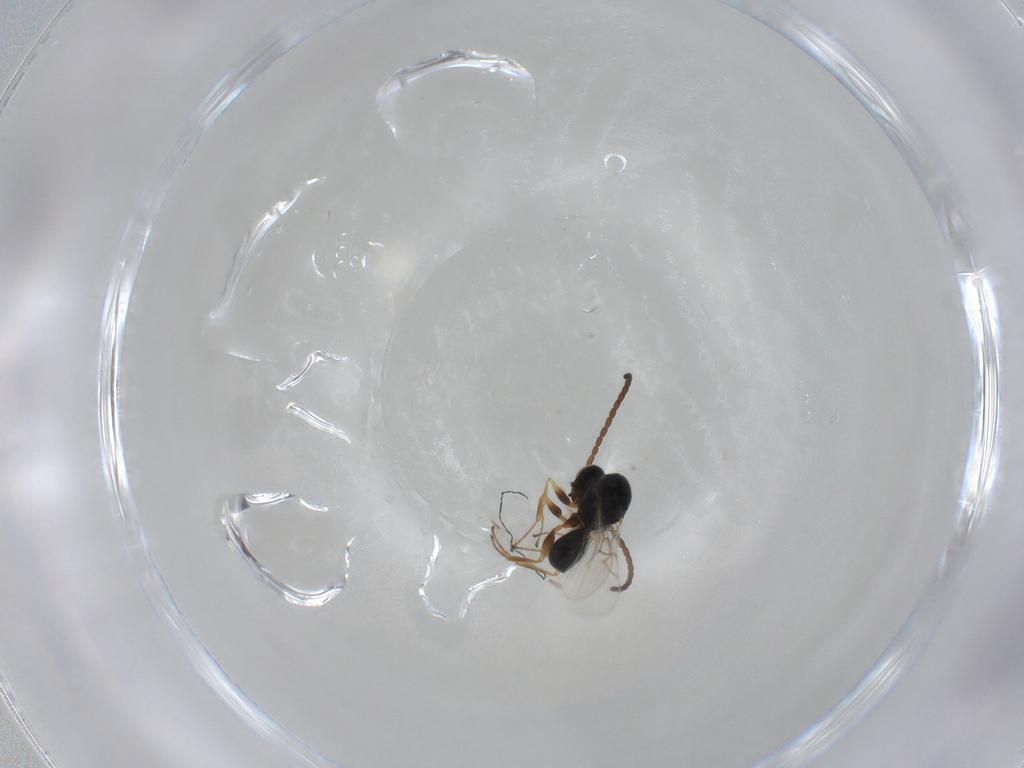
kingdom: Animalia
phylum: Arthropoda
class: Insecta
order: Hymenoptera
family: Figitidae
